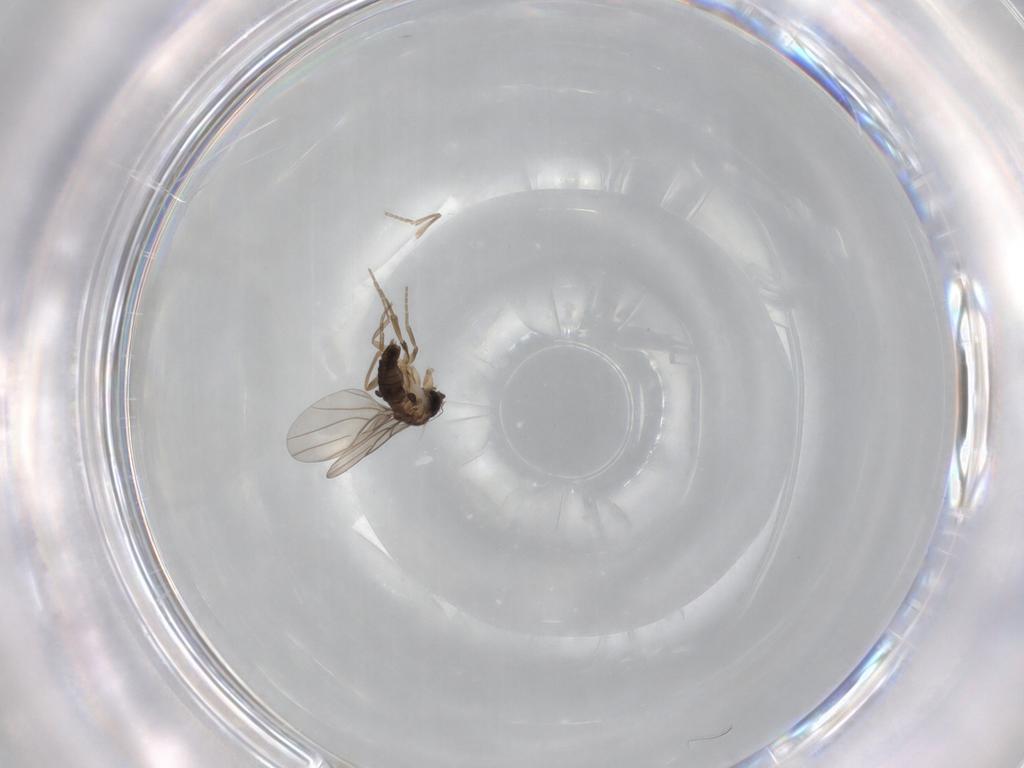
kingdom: Animalia
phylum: Arthropoda
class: Insecta
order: Diptera
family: Phoridae
